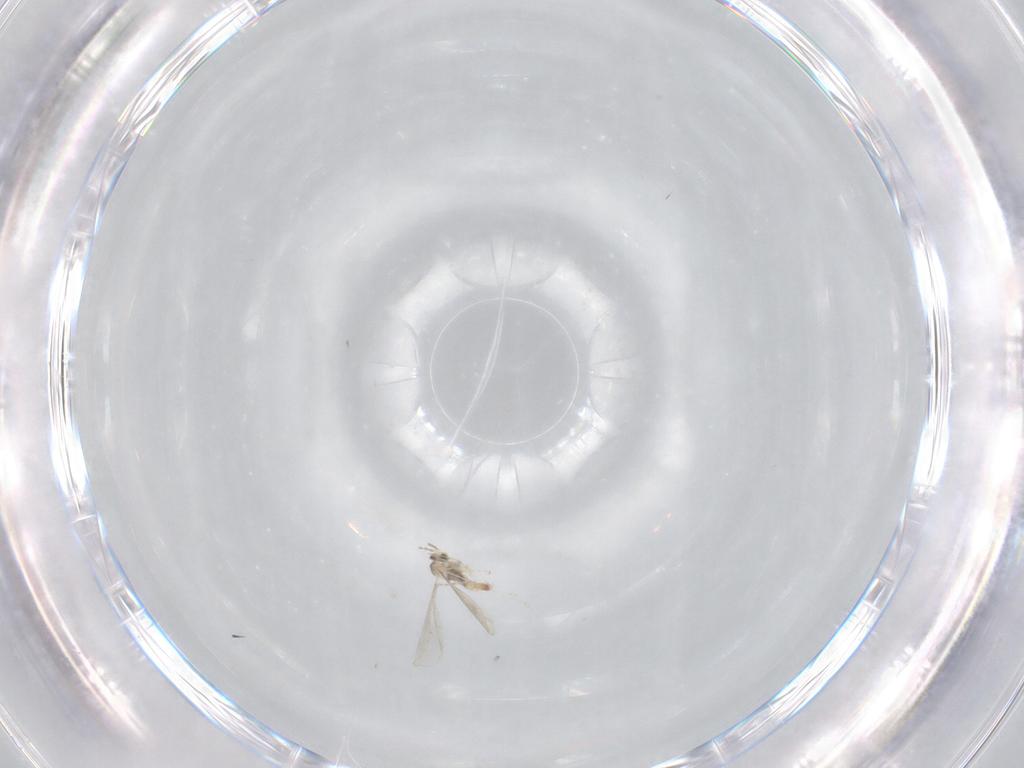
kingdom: Animalia
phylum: Arthropoda
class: Insecta
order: Diptera
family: Cecidomyiidae
